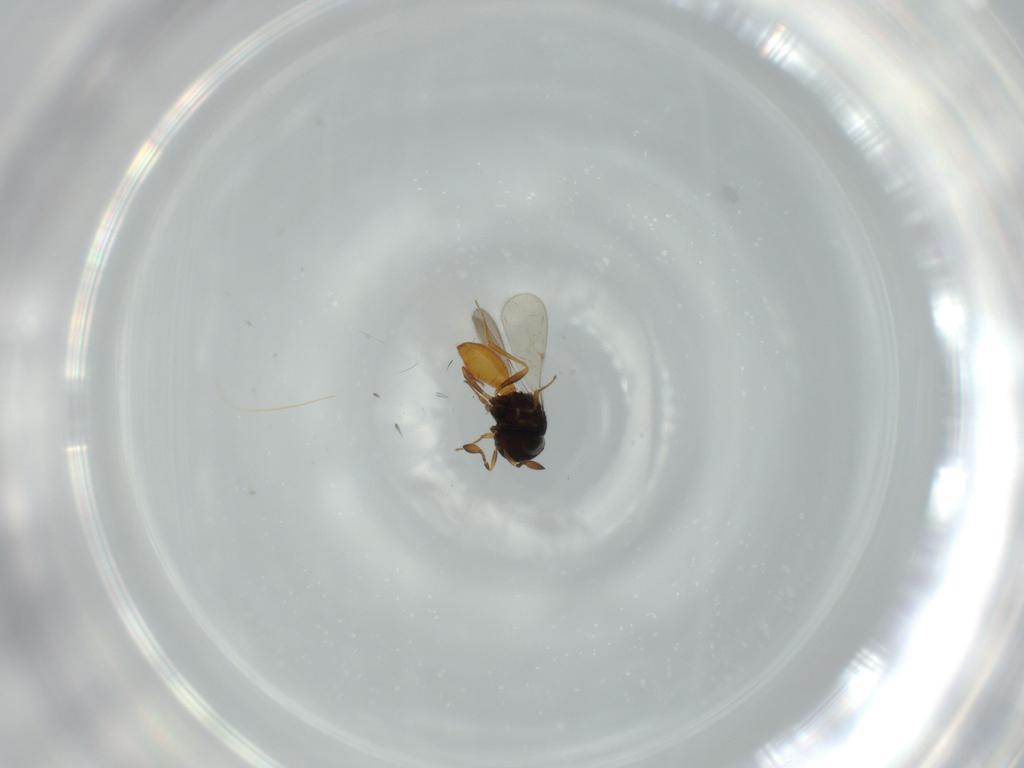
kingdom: Animalia
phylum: Arthropoda
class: Insecta
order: Hymenoptera
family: Scelionidae
